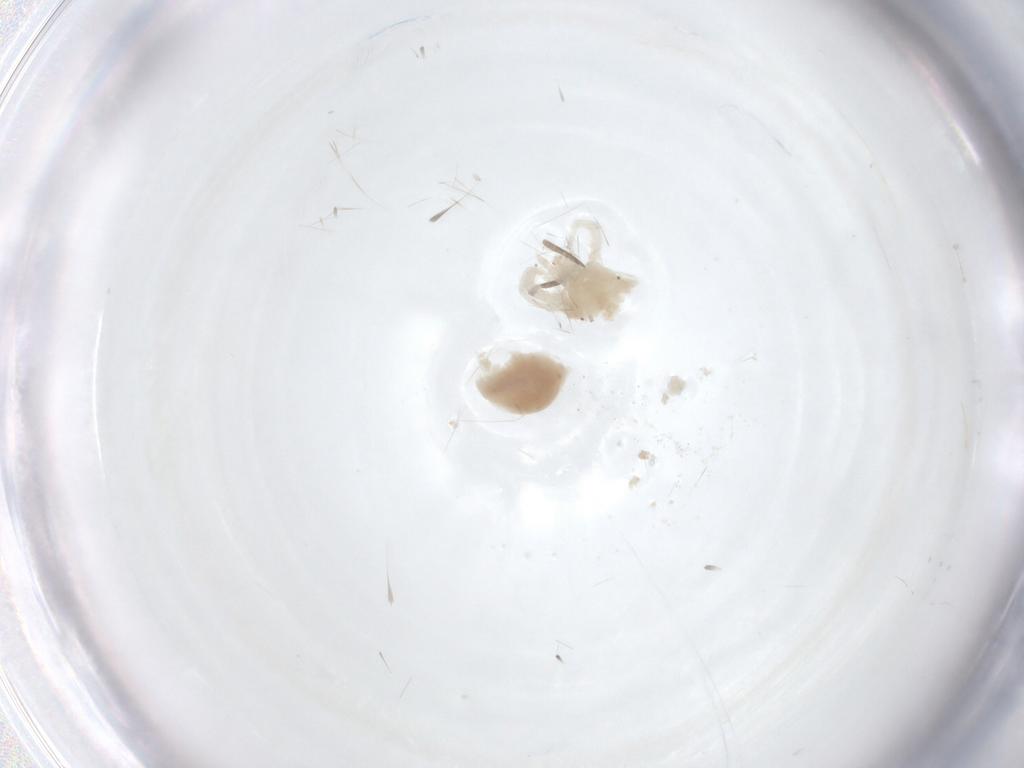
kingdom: Animalia
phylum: Arthropoda
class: Arachnida
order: Trombidiformes
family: Anystidae
